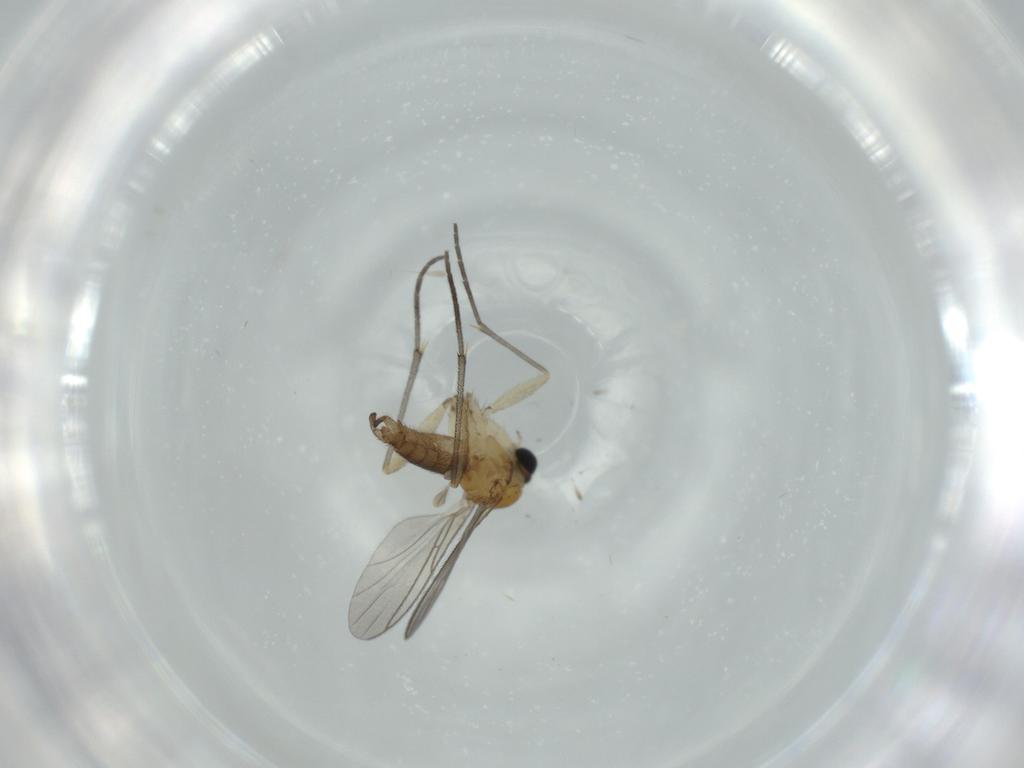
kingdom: Animalia
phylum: Arthropoda
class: Insecta
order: Diptera
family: Sciaridae
